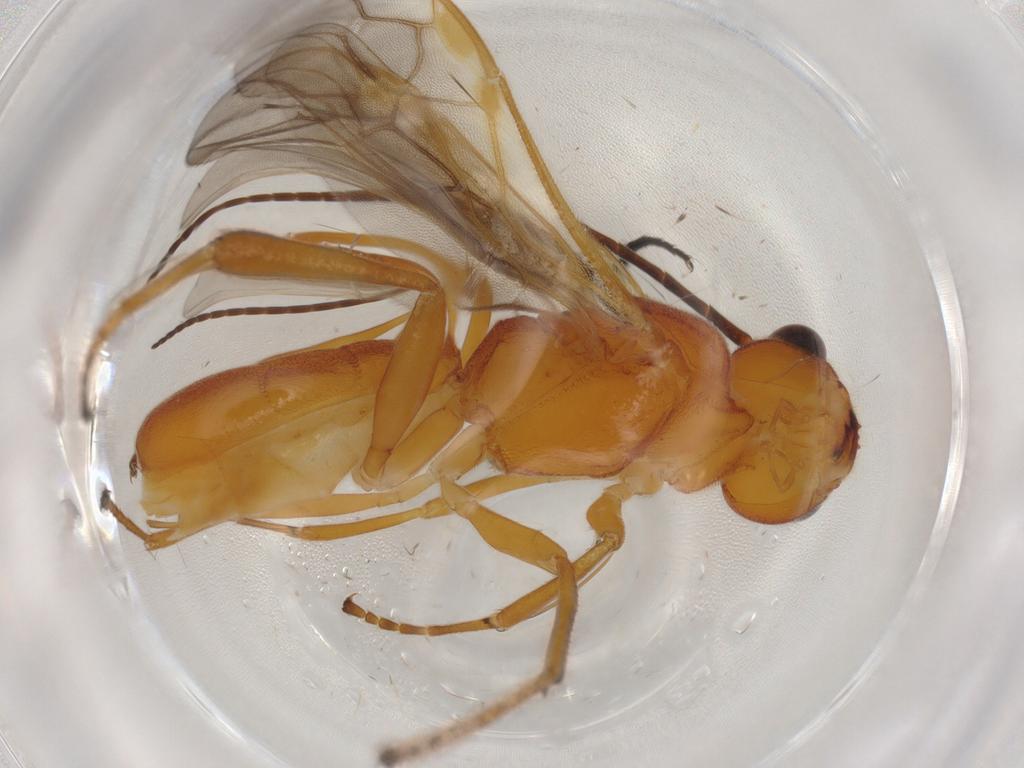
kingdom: Animalia
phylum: Arthropoda
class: Insecta
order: Hymenoptera
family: Braconidae
